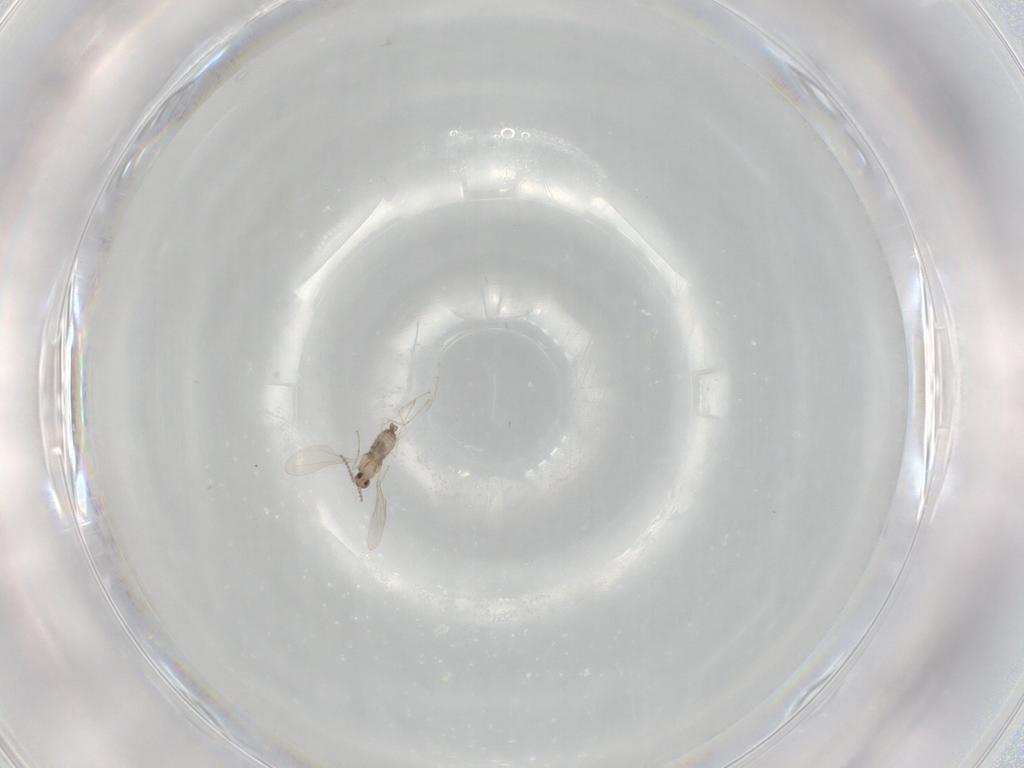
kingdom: Animalia
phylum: Arthropoda
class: Insecta
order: Diptera
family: Cecidomyiidae
